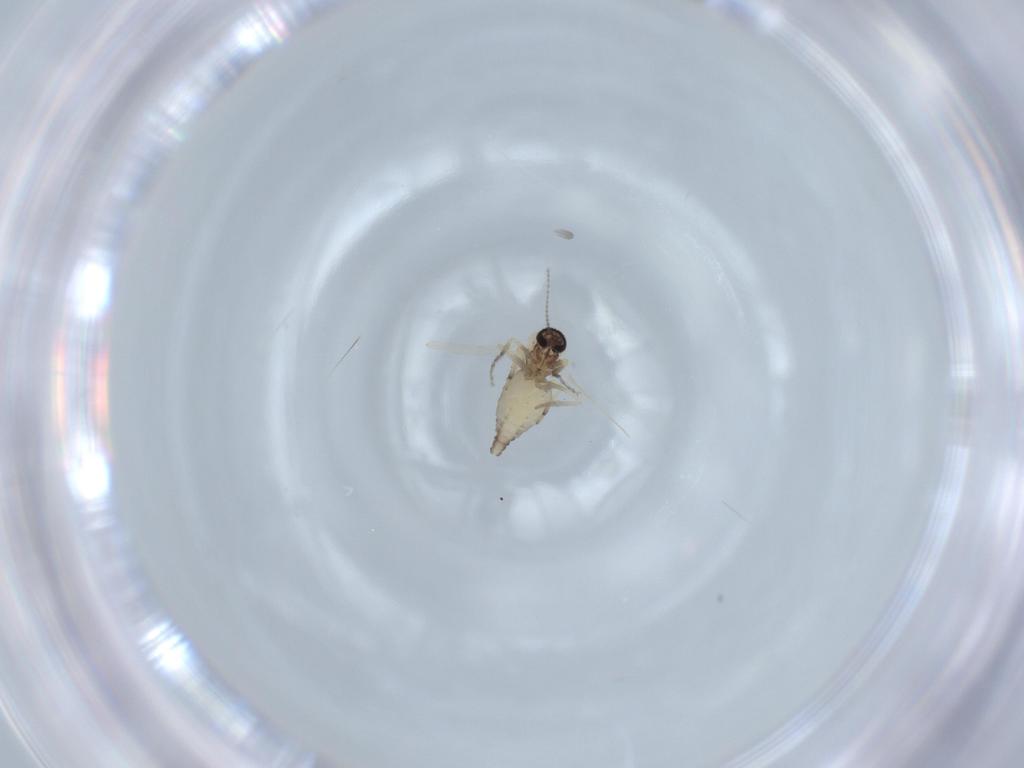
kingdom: Animalia
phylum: Arthropoda
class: Insecta
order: Diptera
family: Ceratopogonidae
